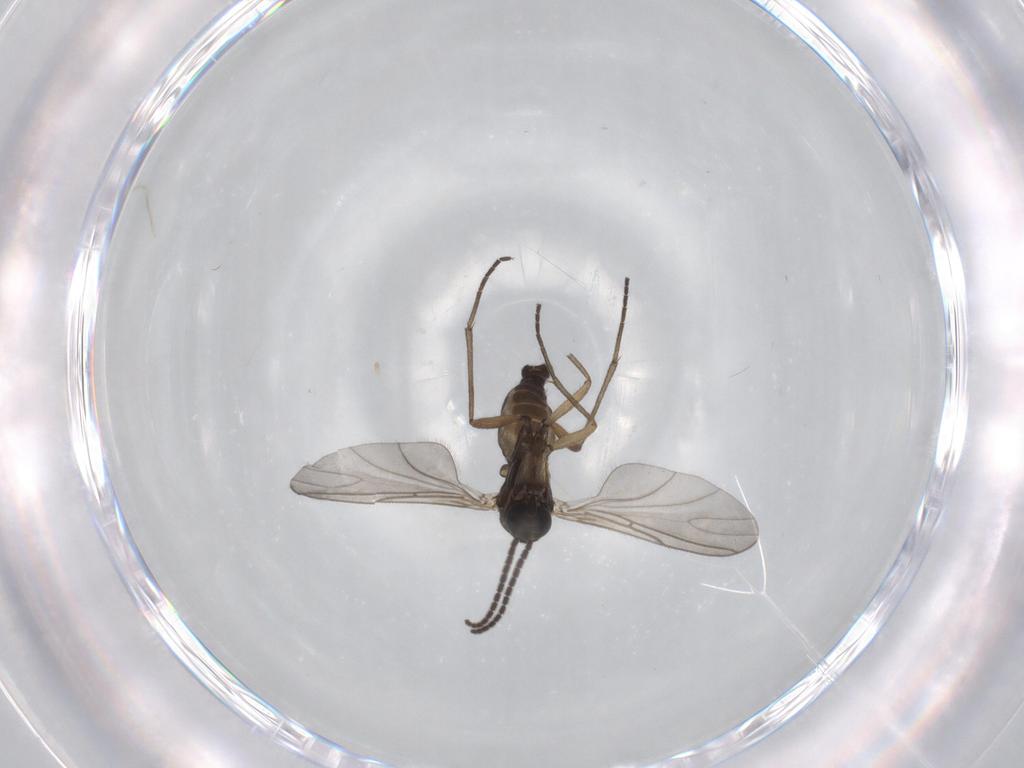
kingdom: Animalia
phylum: Arthropoda
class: Insecta
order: Diptera
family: Sciaridae
